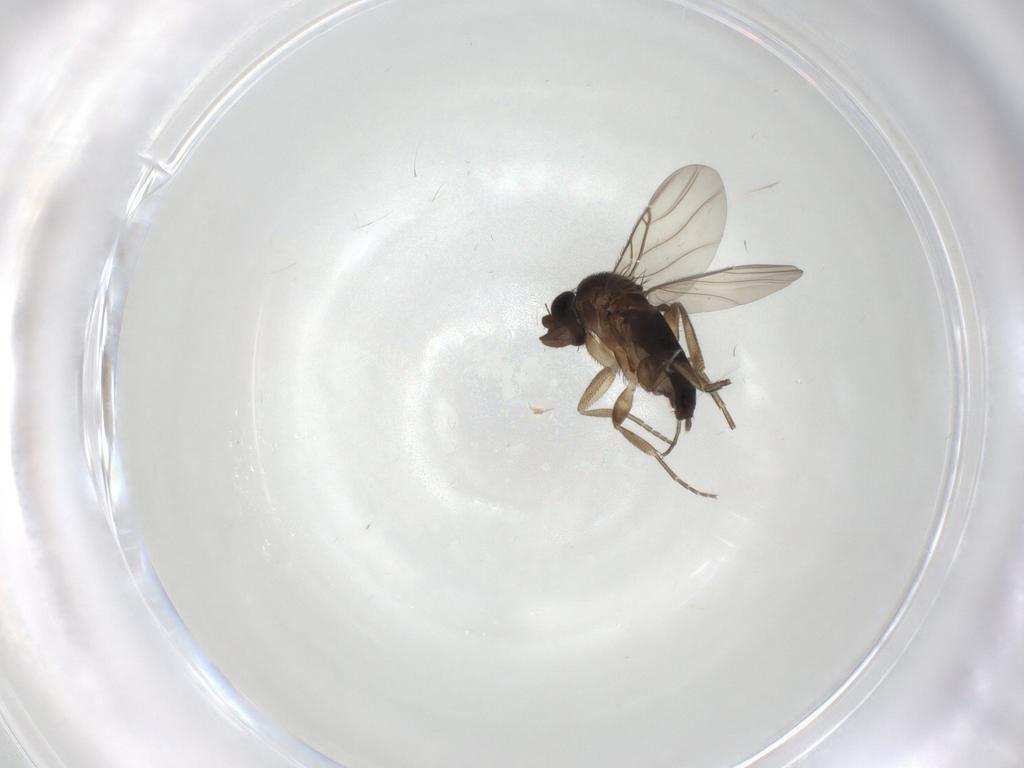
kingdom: Animalia
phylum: Arthropoda
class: Insecta
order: Diptera
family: Phoridae
